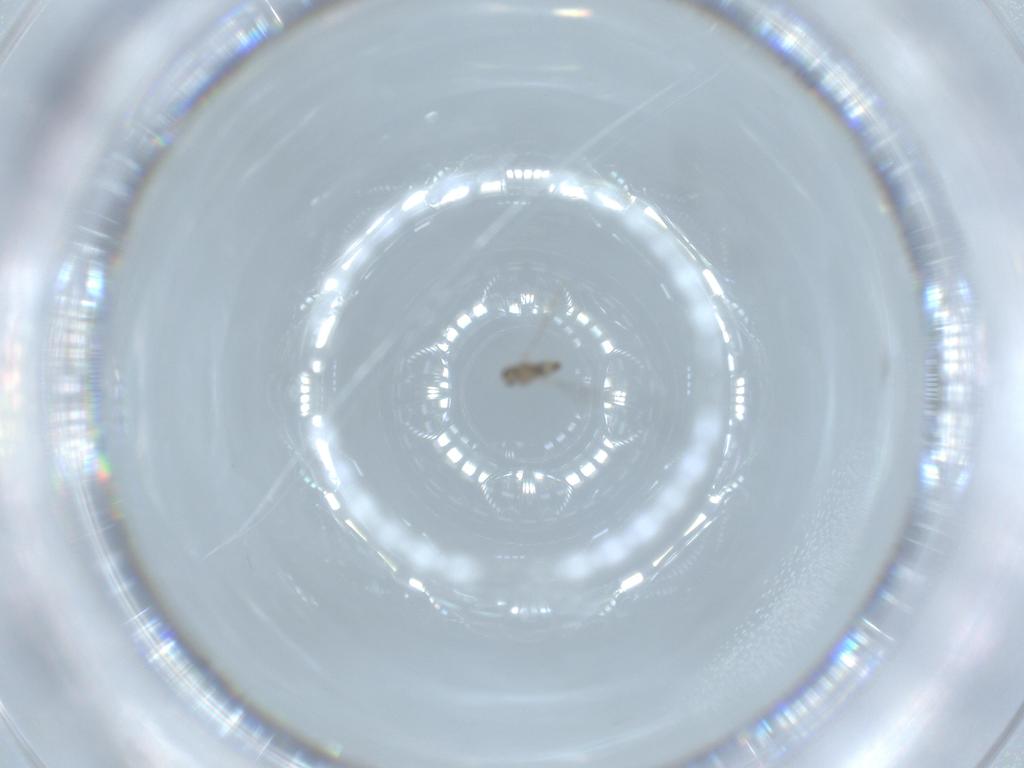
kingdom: Animalia
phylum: Arthropoda
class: Insecta
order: Diptera
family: Cecidomyiidae
